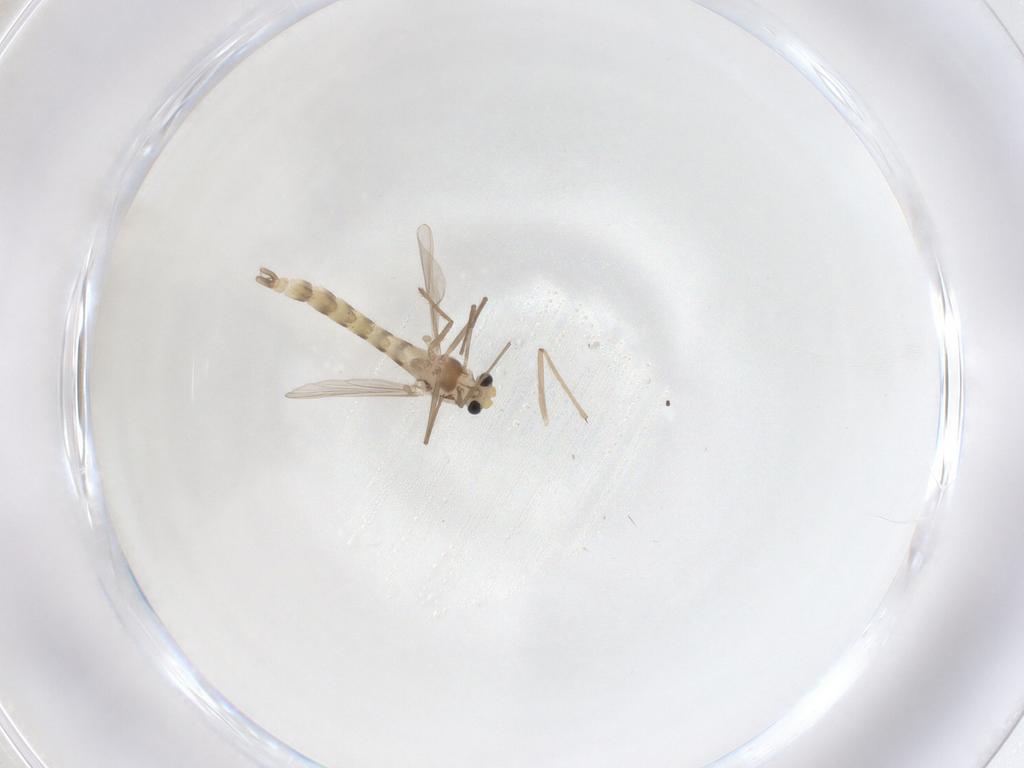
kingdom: Animalia
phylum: Arthropoda
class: Insecta
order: Diptera
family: Chironomidae
